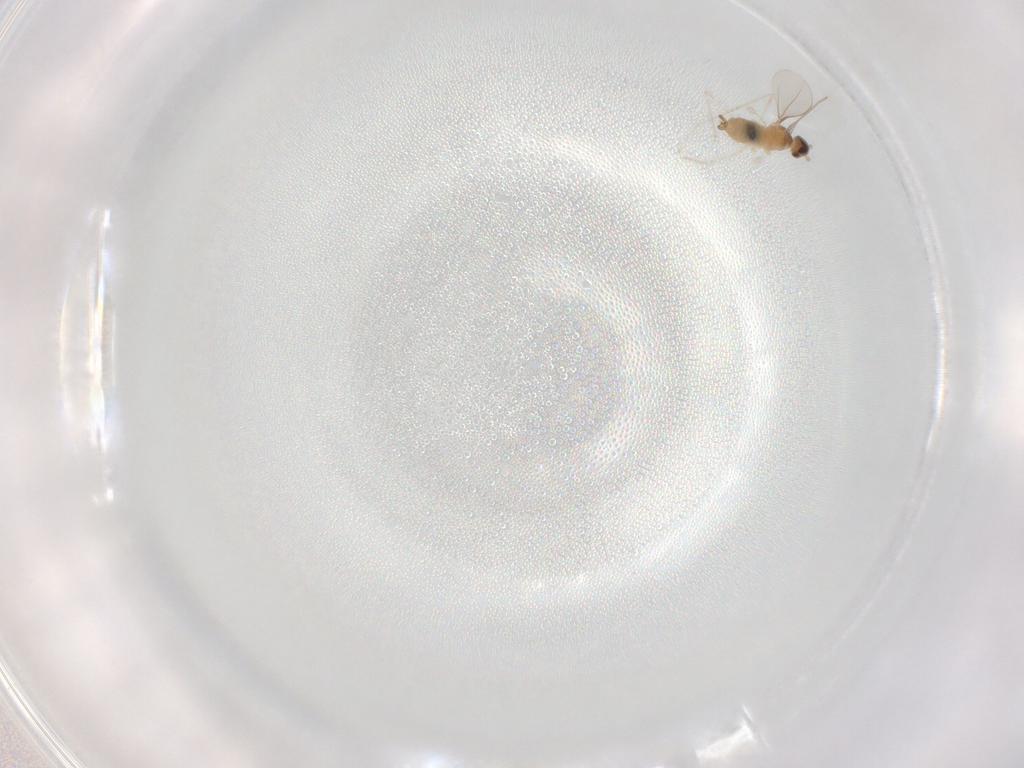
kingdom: Animalia
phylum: Arthropoda
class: Insecta
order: Diptera
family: Cecidomyiidae
